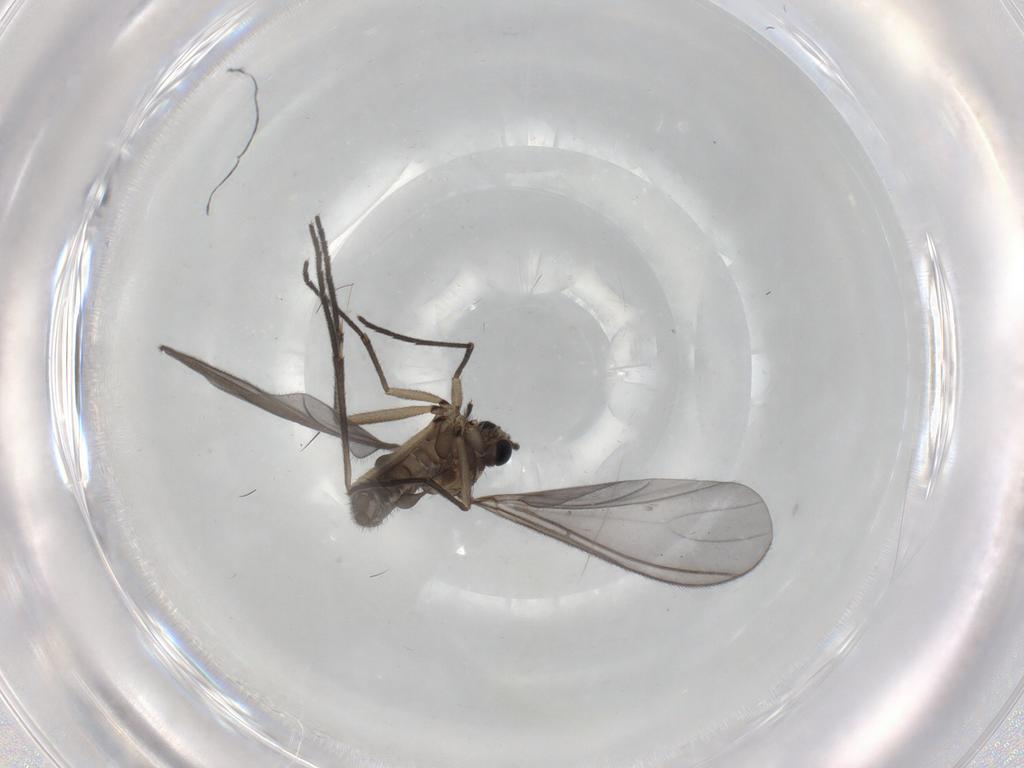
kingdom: Animalia
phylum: Arthropoda
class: Insecta
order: Diptera
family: Sciaridae
